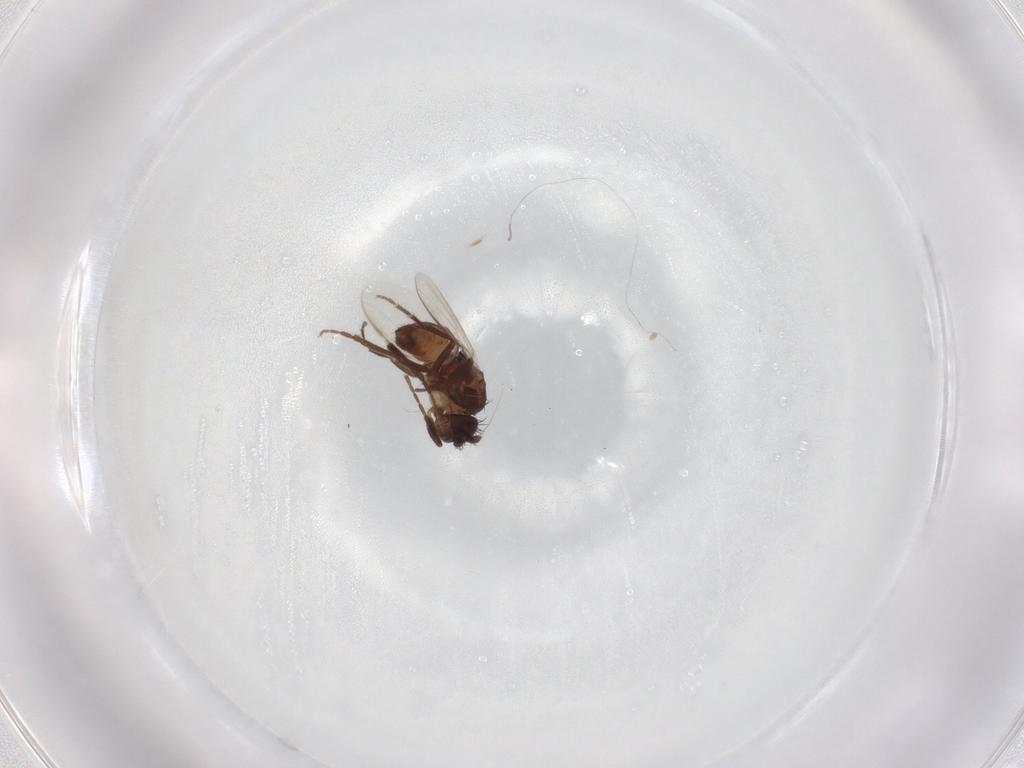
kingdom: Animalia
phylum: Arthropoda
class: Insecta
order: Diptera
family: Sphaeroceridae
